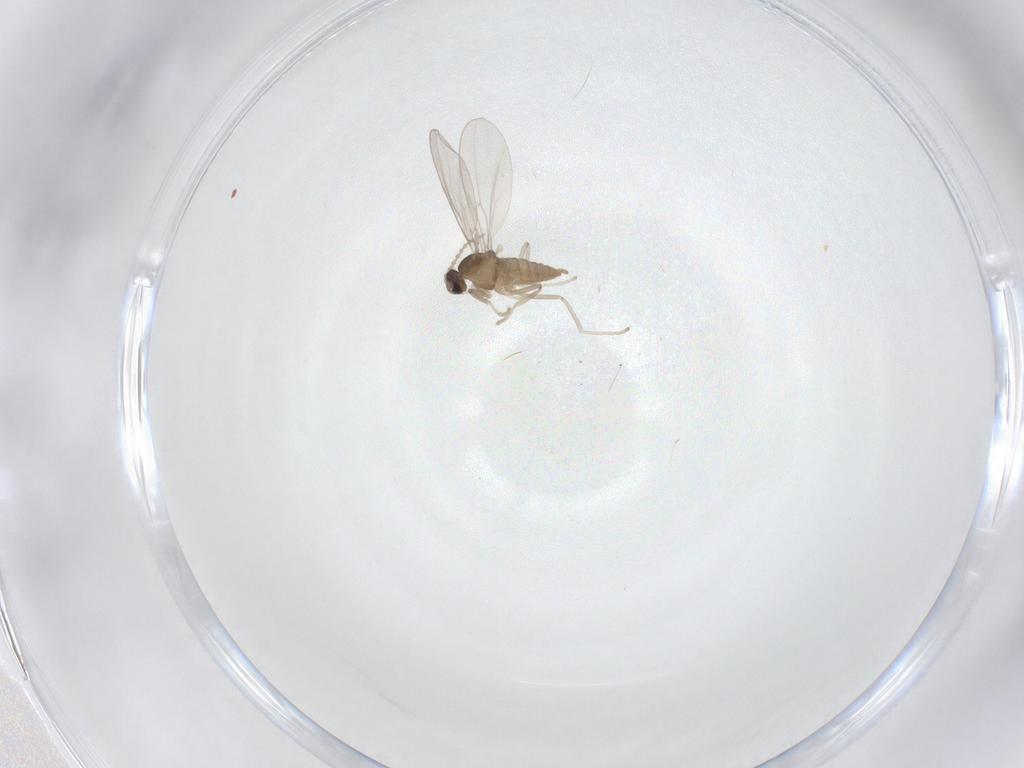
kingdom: Animalia
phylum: Arthropoda
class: Insecta
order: Diptera
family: Cecidomyiidae
